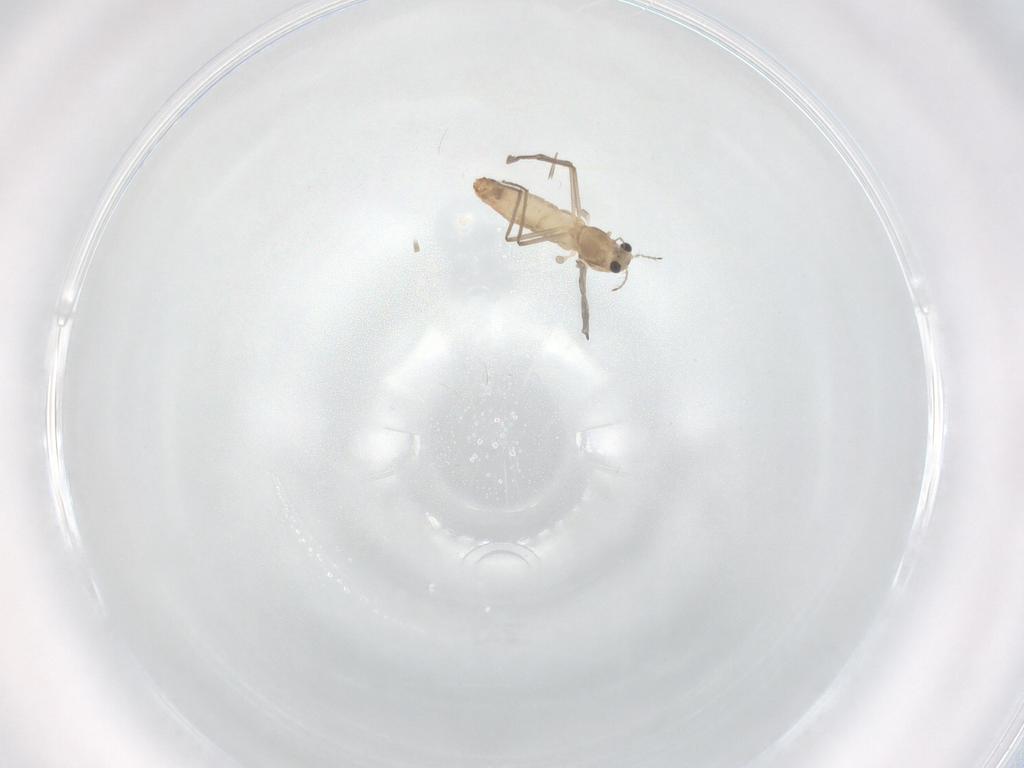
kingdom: Animalia
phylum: Arthropoda
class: Insecta
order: Diptera
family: Chironomidae
